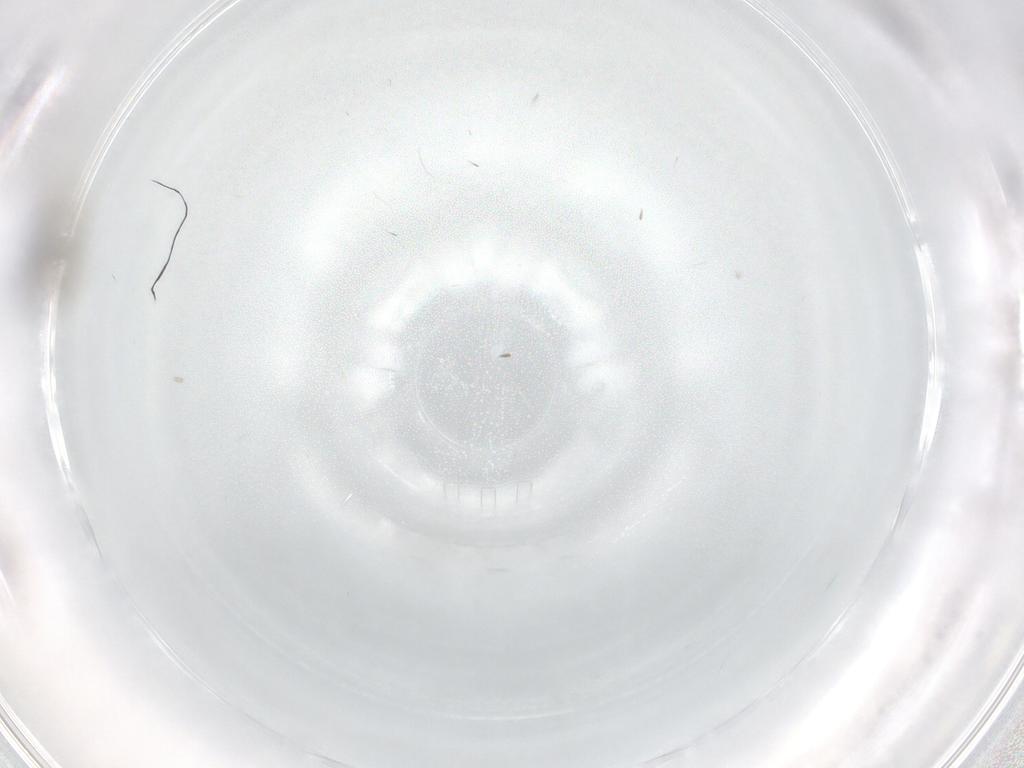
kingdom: Animalia
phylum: Arthropoda
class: Insecta
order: Diptera
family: Cecidomyiidae
